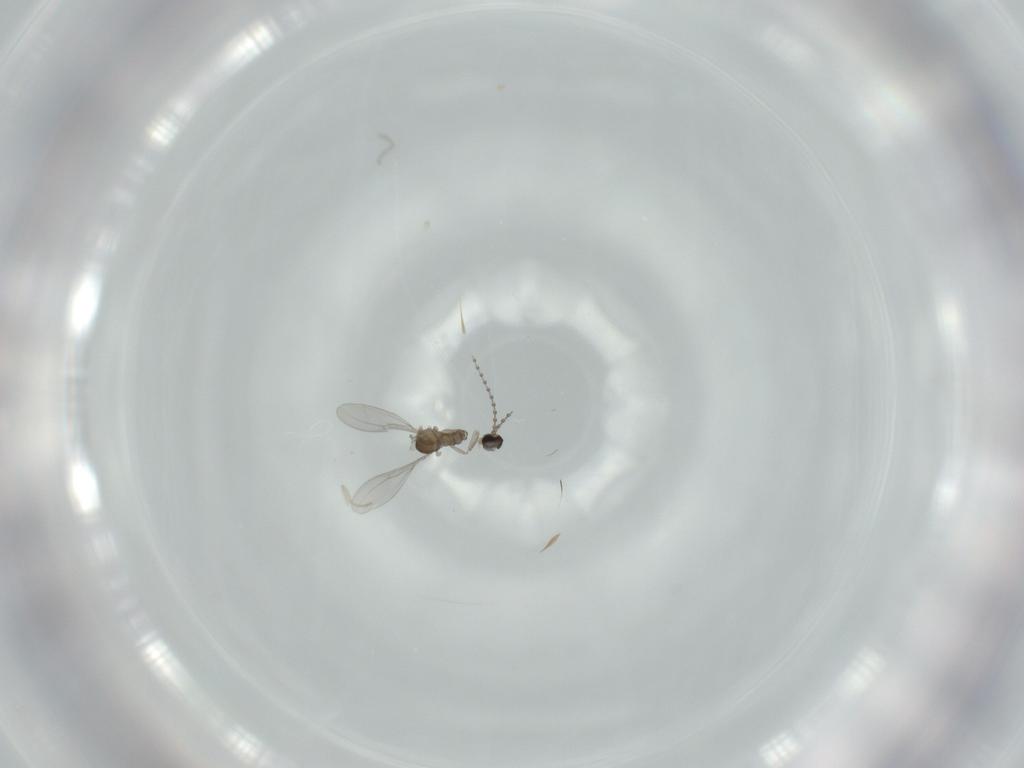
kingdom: Animalia
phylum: Arthropoda
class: Insecta
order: Diptera
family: Cecidomyiidae
